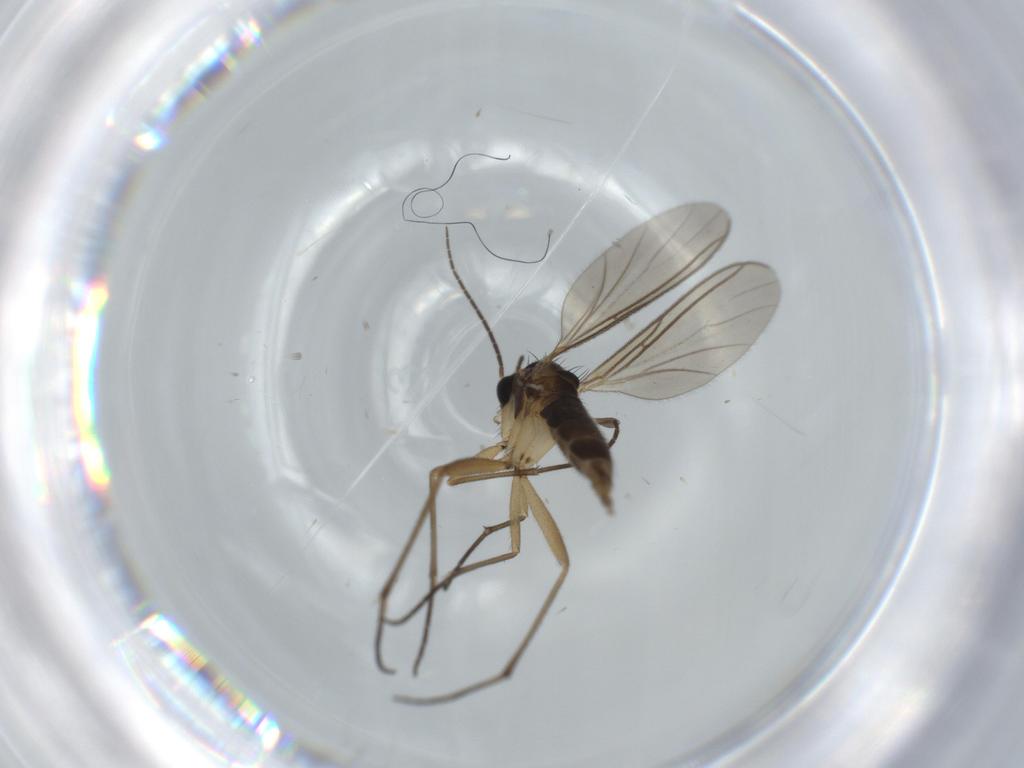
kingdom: Animalia
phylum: Arthropoda
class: Insecta
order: Diptera
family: Sciaridae
